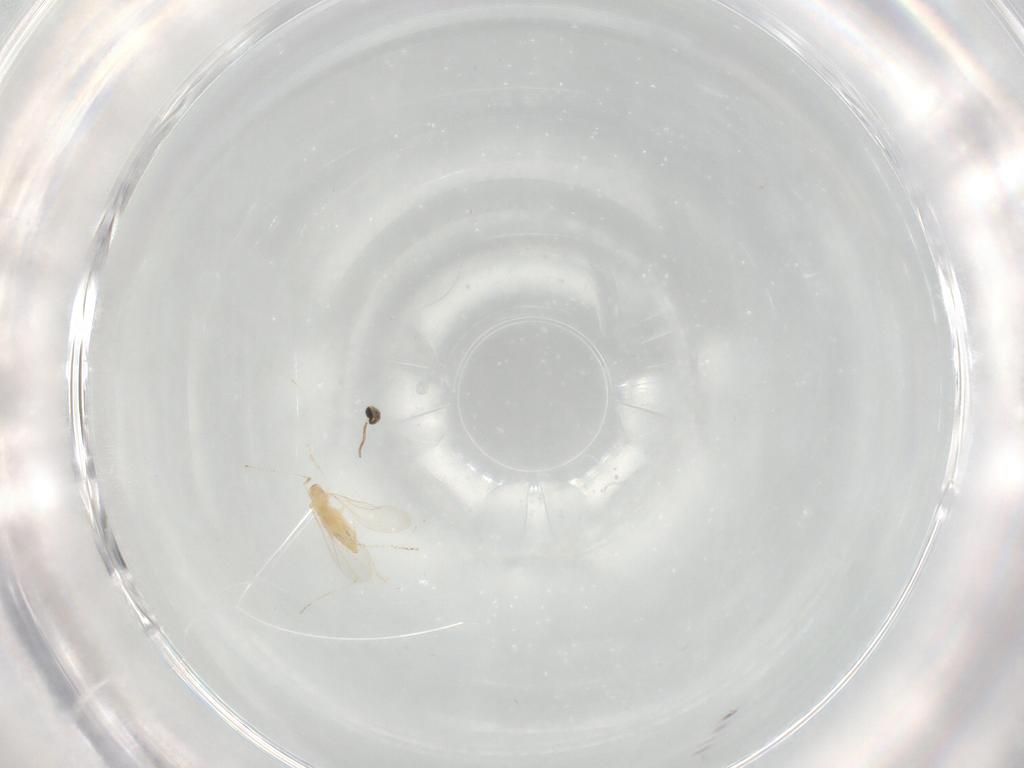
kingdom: Animalia
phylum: Arthropoda
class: Insecta
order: Diptera
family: Cecidomyiidae
